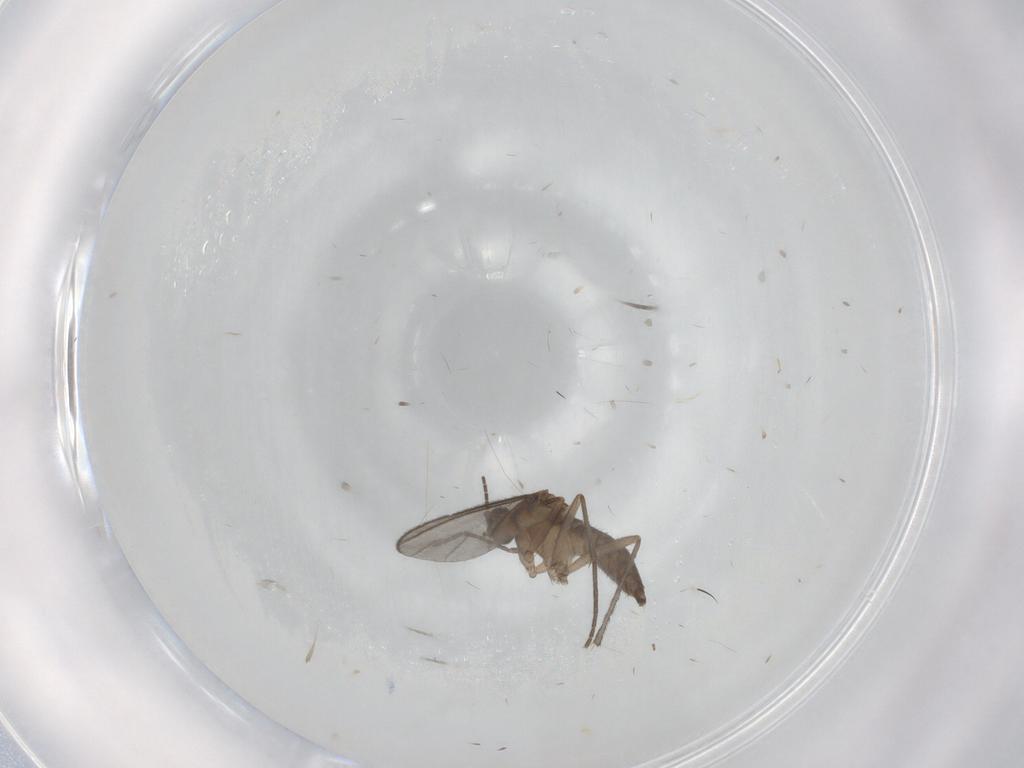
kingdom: Animalia
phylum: Arthropoda
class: Insecta
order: Diptera
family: Sciaridae
